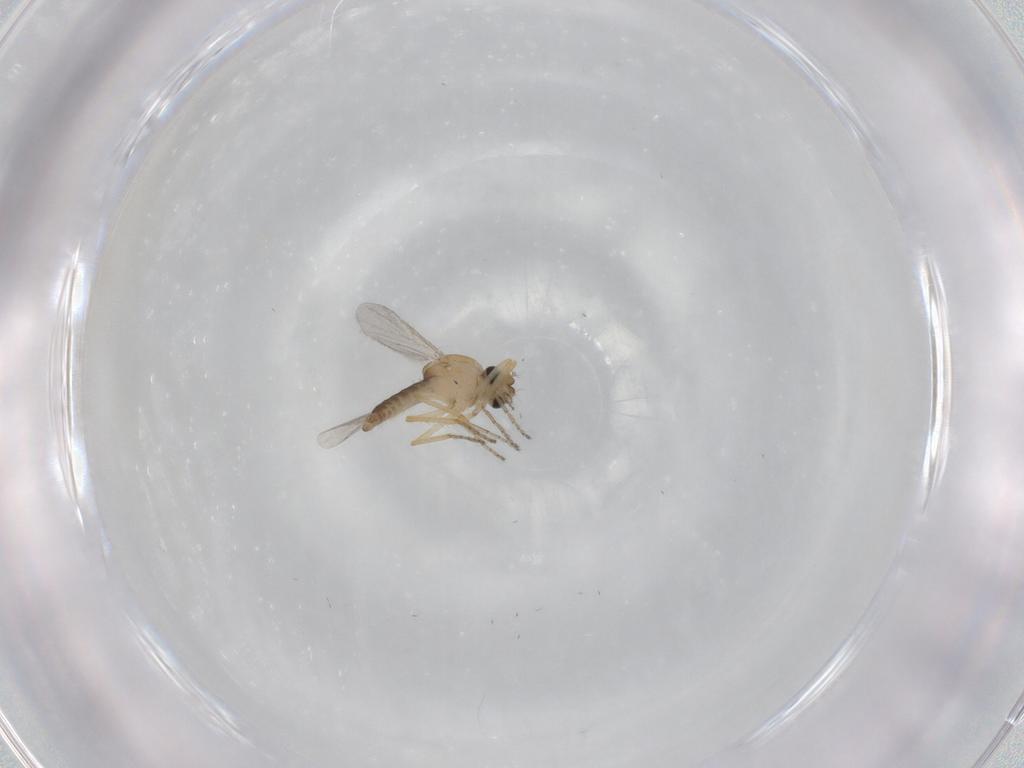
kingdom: Animalia
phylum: Arthropoda
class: Insecta
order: Diptera
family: Ceratopogonidae
